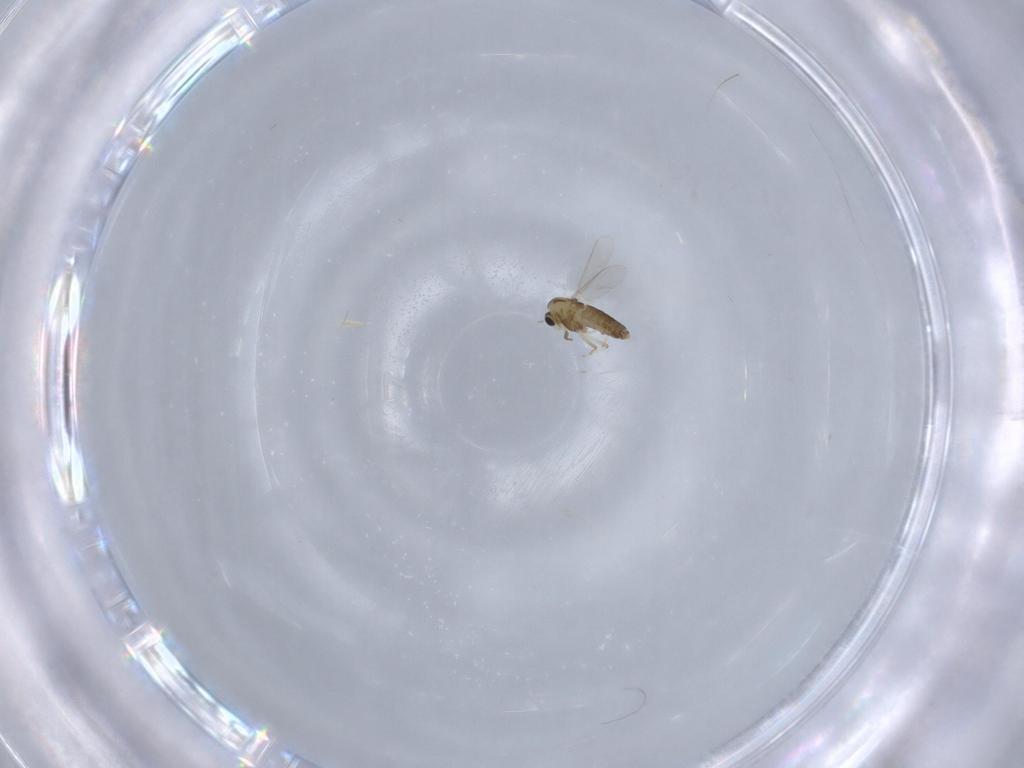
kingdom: Animalia
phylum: Arthropoda
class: Insecta
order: Diptera
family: Chironomidae
